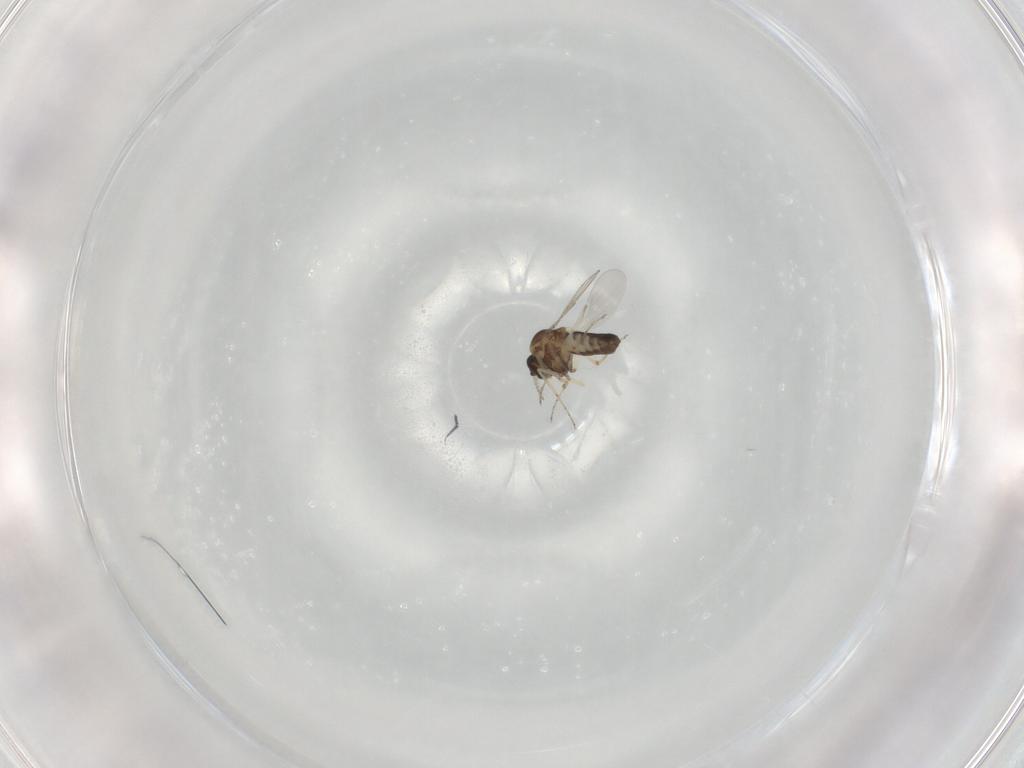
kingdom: Animalia
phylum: Arthropoda
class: Insecta
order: Diptera
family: Ceratopogonidae
